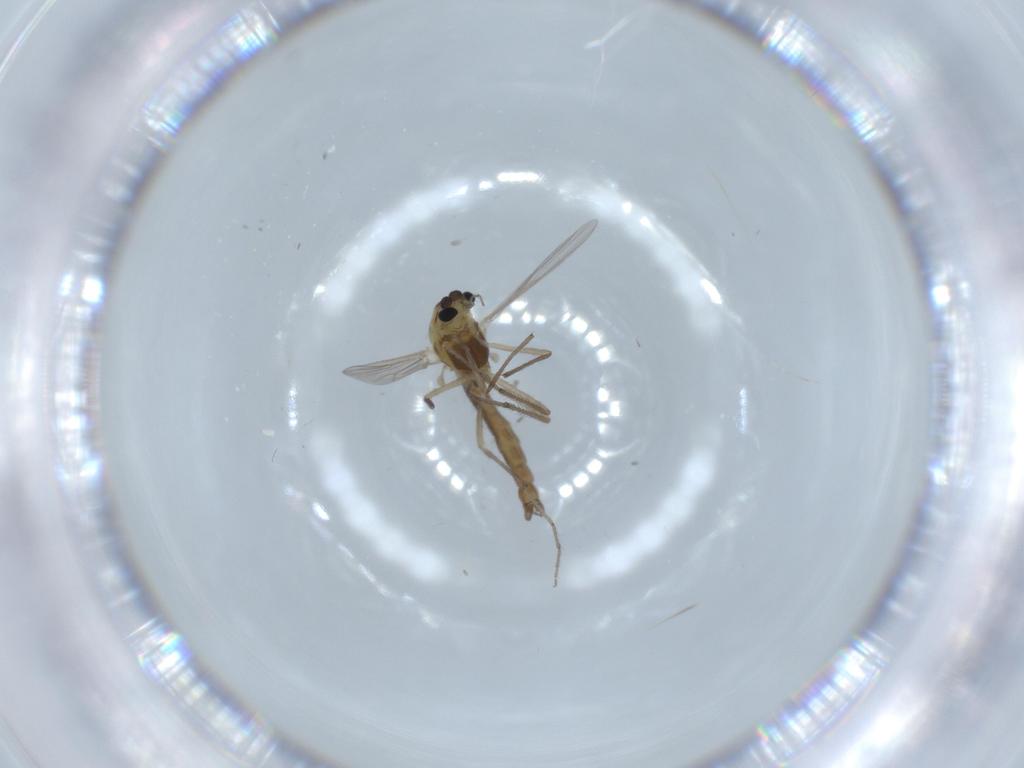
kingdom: Animalia
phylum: Arthropoda
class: Insecta
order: Diptera
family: Chironomidae
